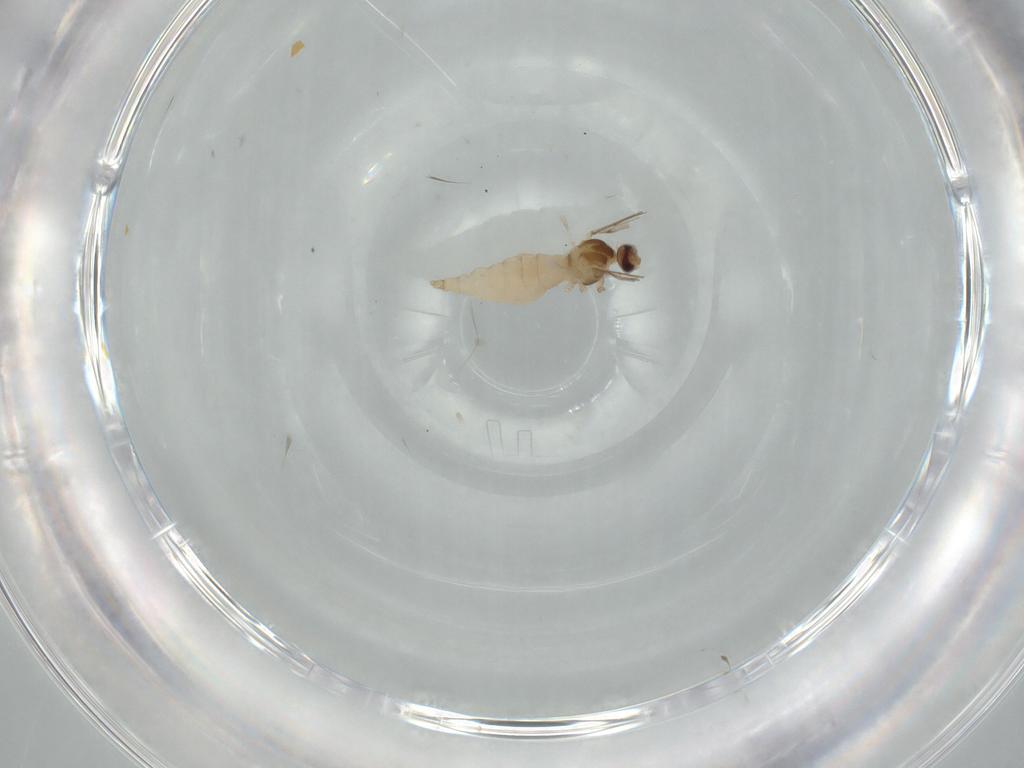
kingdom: Animalia
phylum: Arthropoda
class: Insecta
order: Diptera
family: Cecidomyiidae
